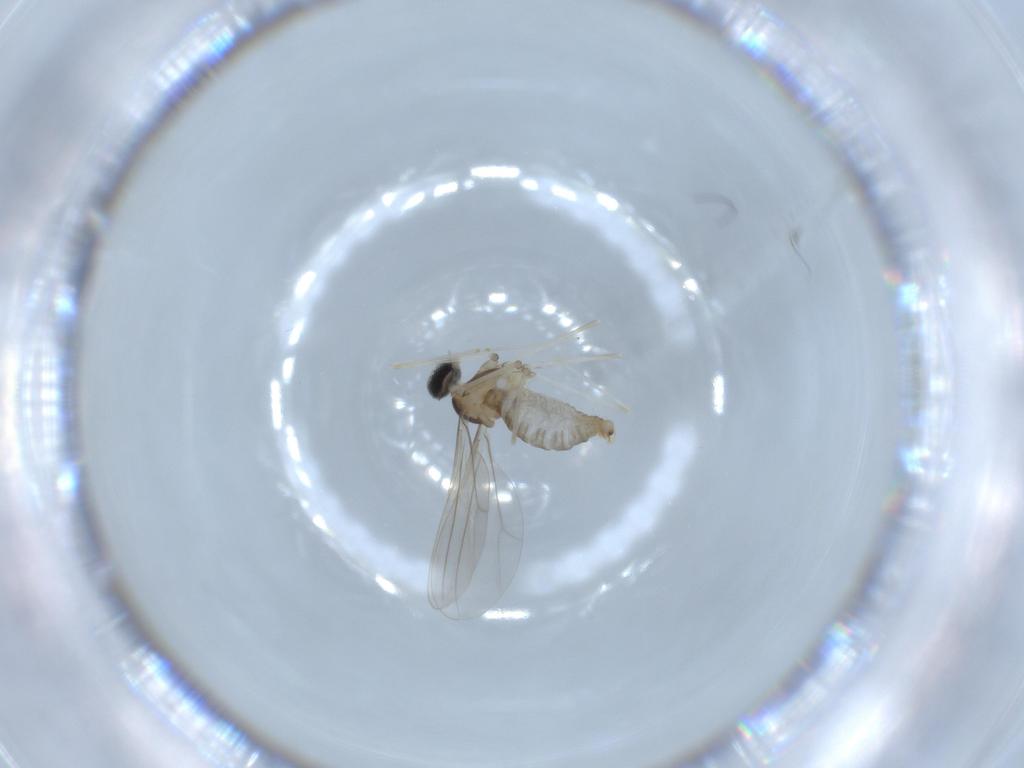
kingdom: Animalia
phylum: Arthropoda
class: Insecta
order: Diptera
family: Cecidomyiidae
